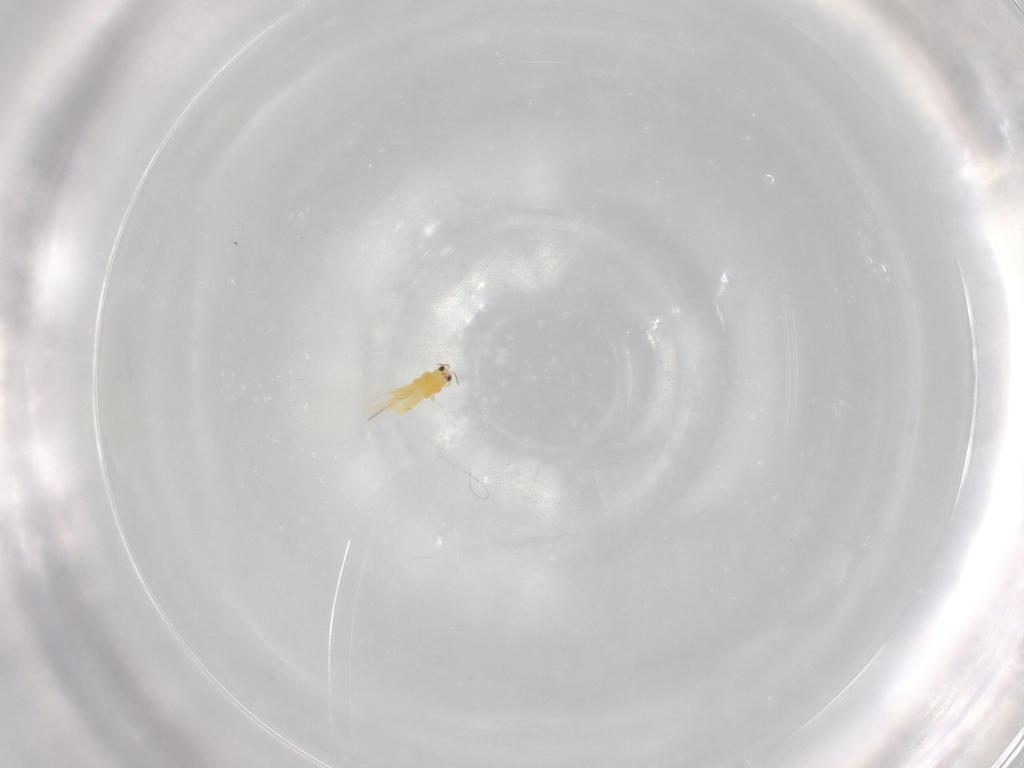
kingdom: Animalia
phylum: Arthropoda
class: Insecta
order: Thysanoptera
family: Thripidae
